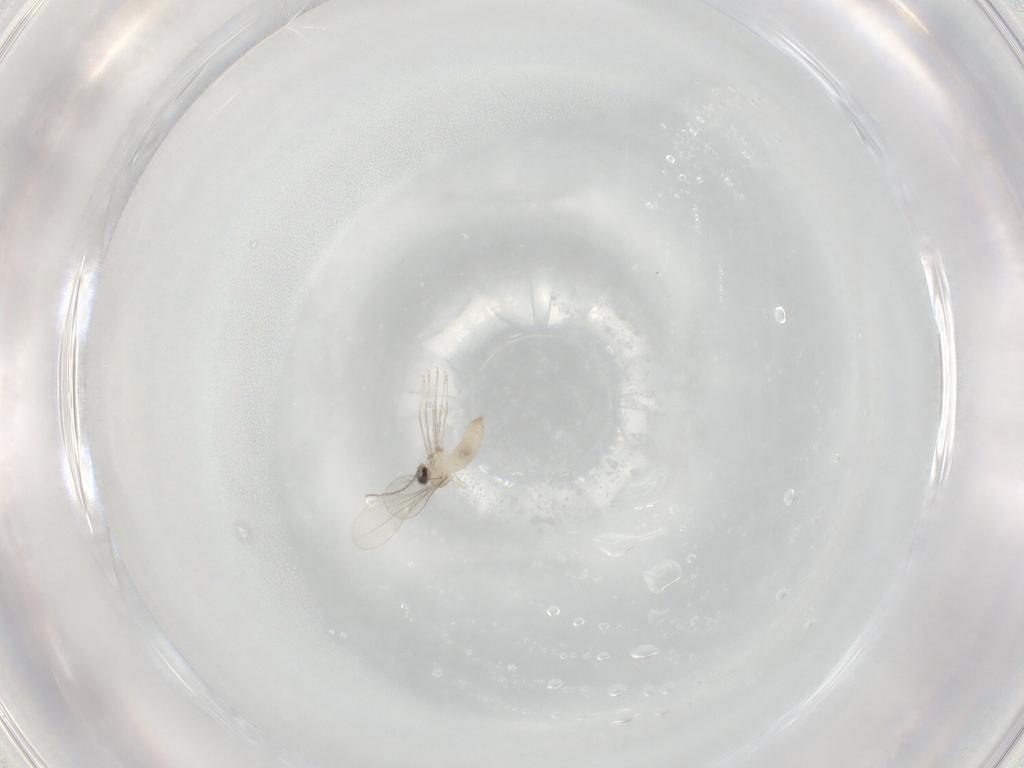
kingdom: Animalia
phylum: Arthropoda
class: Insecta
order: Diptera
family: Cecidomyiidae
